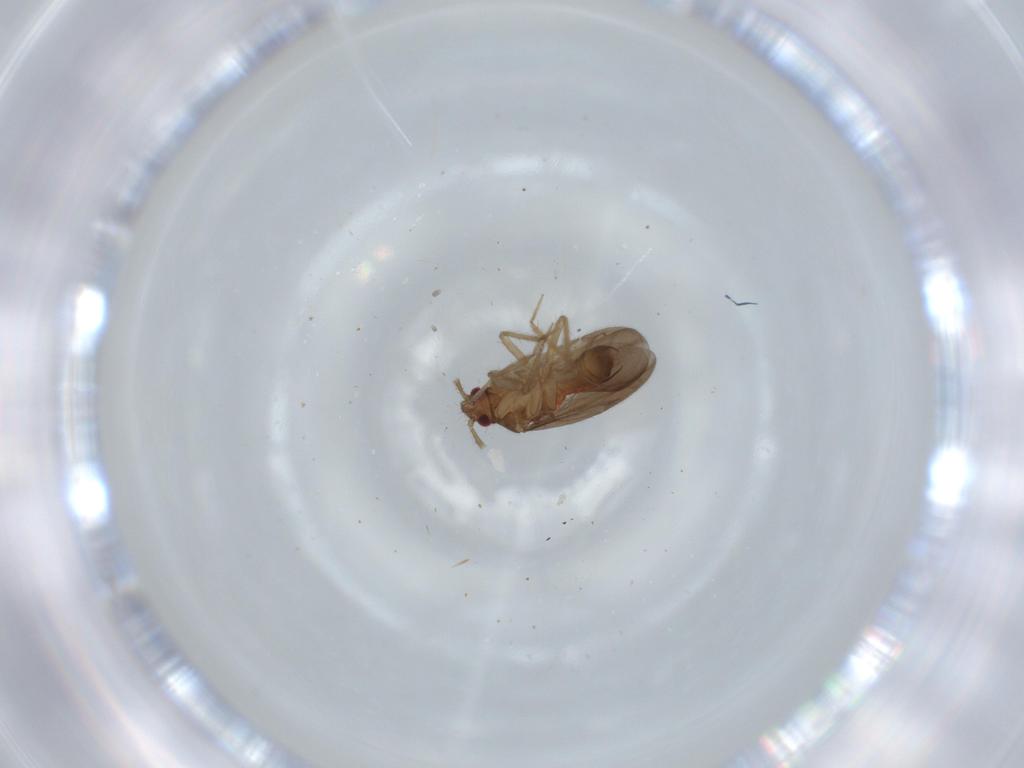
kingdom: Animalia
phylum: Arthropoda
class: Insecta
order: Hemiptera
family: Ceratocombidae
